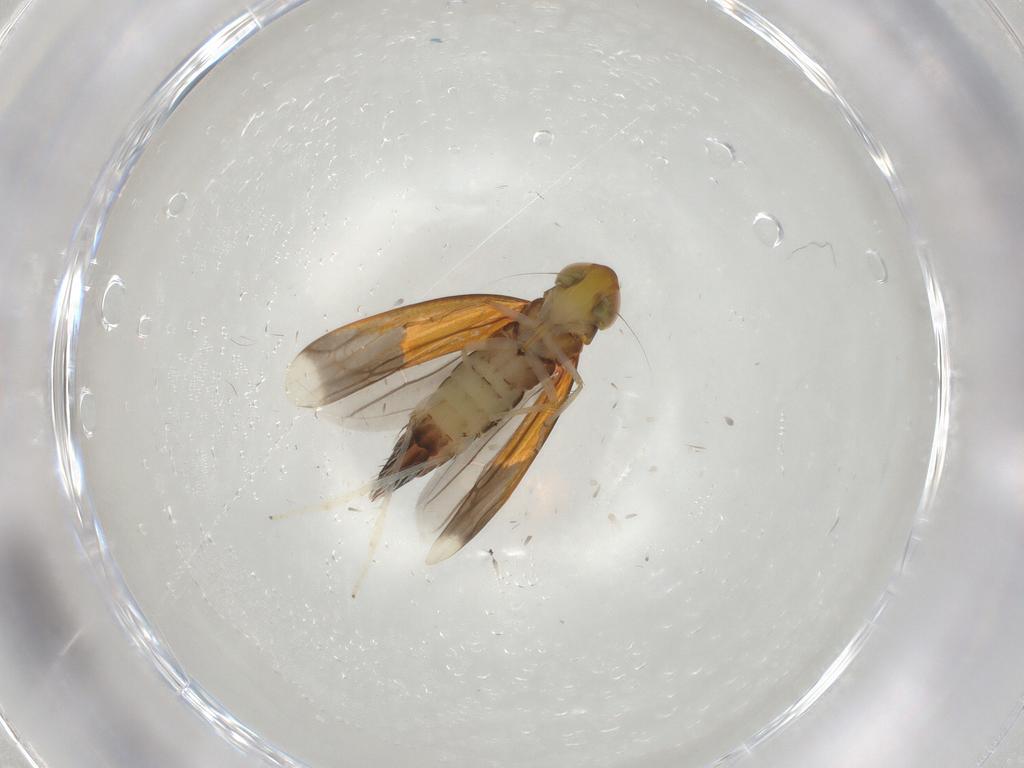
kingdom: Animalia
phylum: Arthropoda
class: Insecta
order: Hemiptera
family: Cicadellidae
